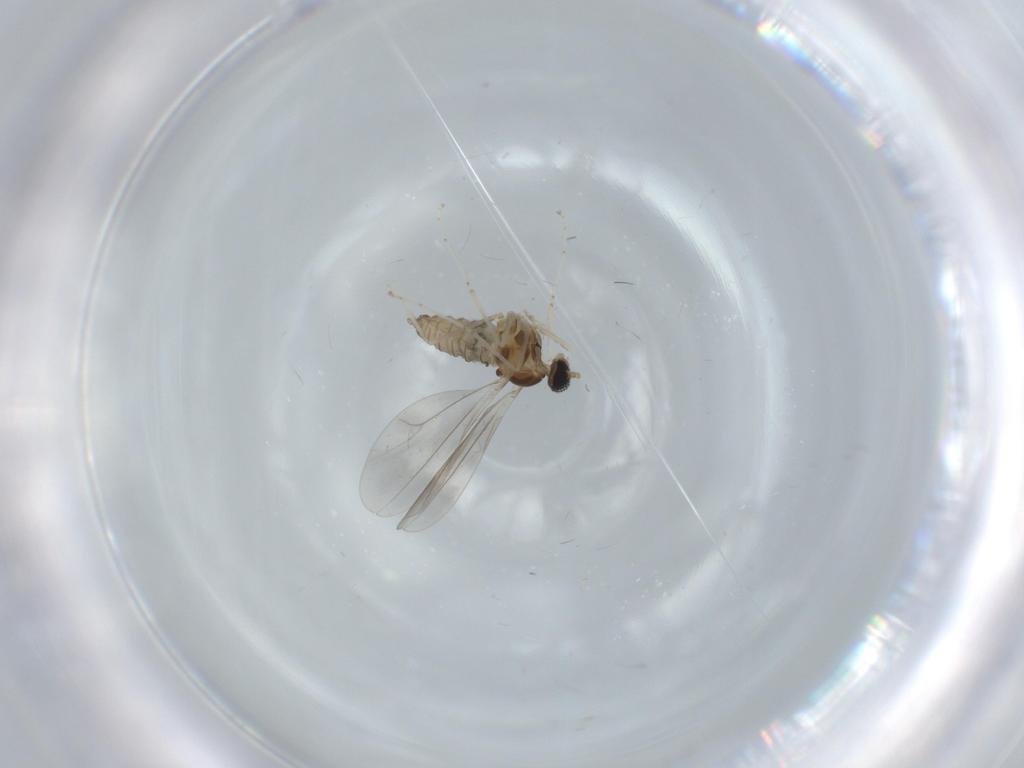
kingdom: Animalia
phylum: Arthropoda
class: Insecta
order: Diptera
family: Cecidomyiidae
